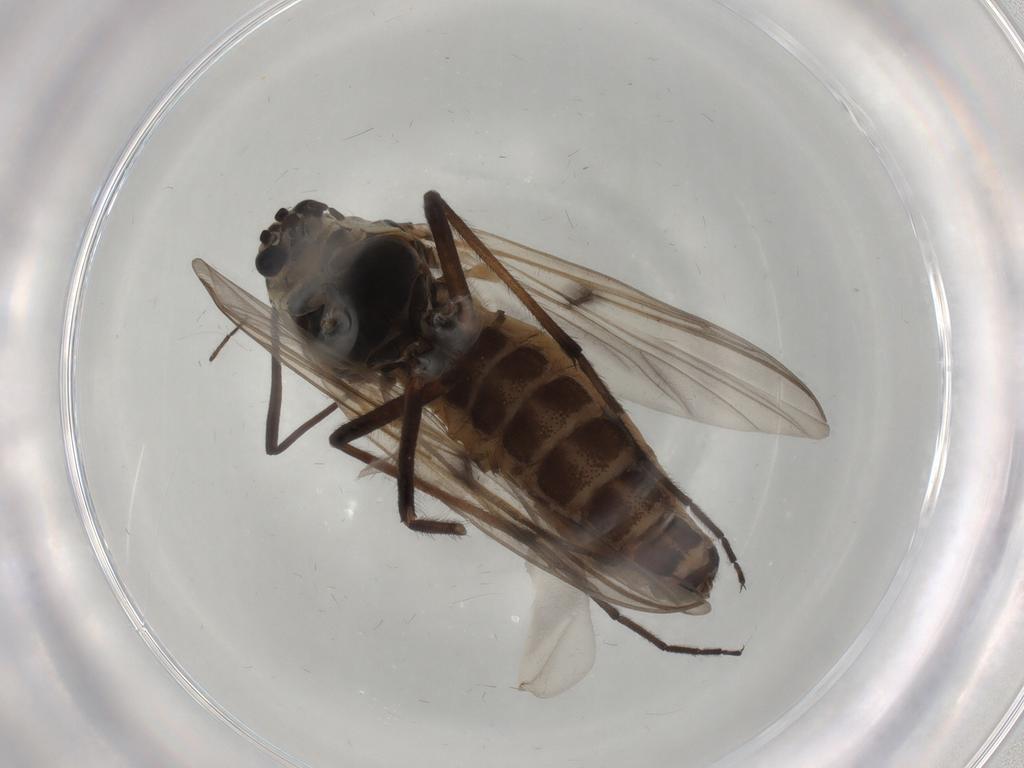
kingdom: Animalia
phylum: Arthropoda
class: Insecta
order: Diptera
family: Chironomidae
